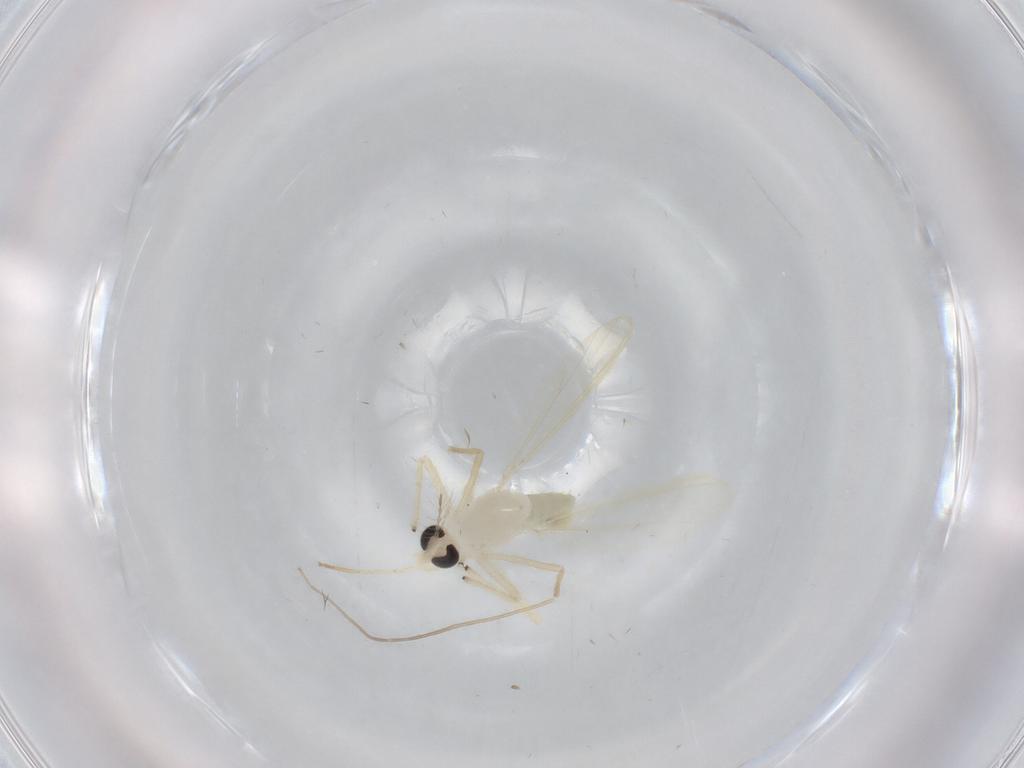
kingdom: Animalia
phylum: Arthropoda
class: Insecta
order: Diptera
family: Chironomidae
